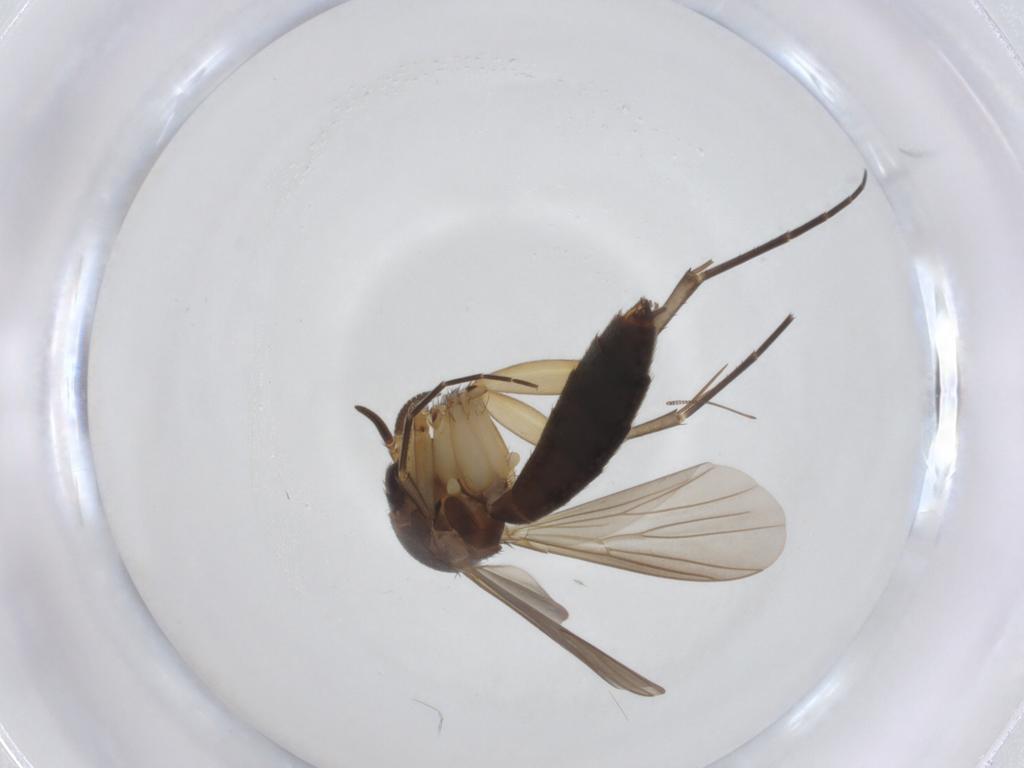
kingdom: Animalia
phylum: Arthropoda
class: Insecta
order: Diptera
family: Mycetophilidae
